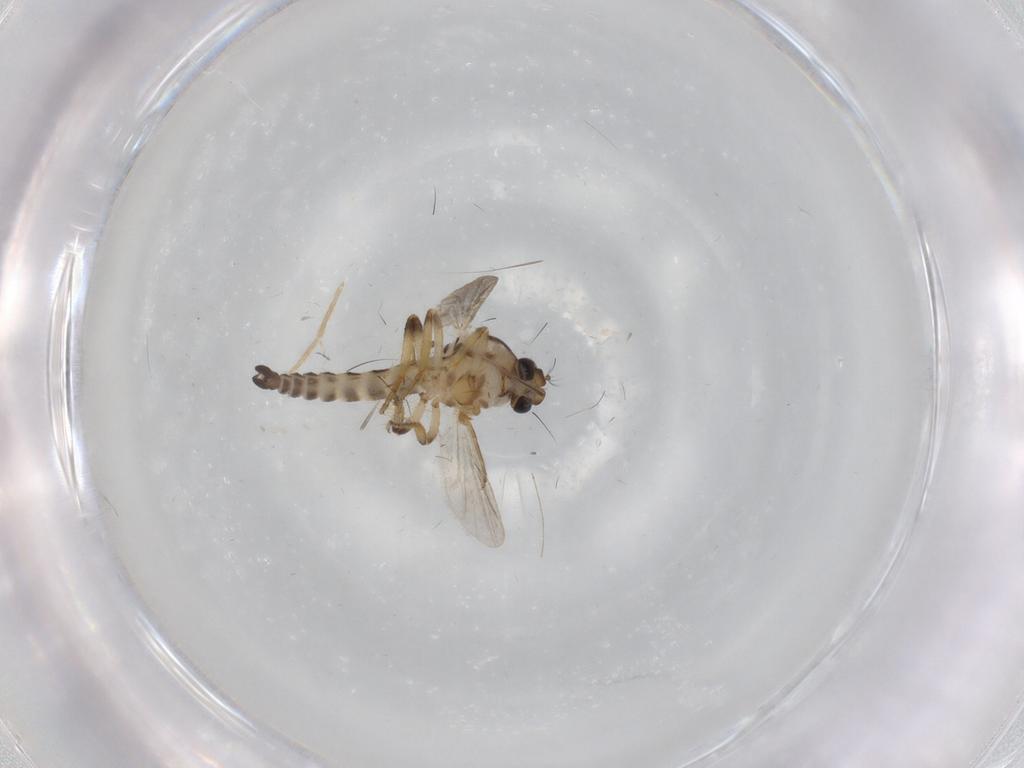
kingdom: Animalia
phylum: Arthropoda
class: Insecta
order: Diptera
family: Ceratopogonidae
